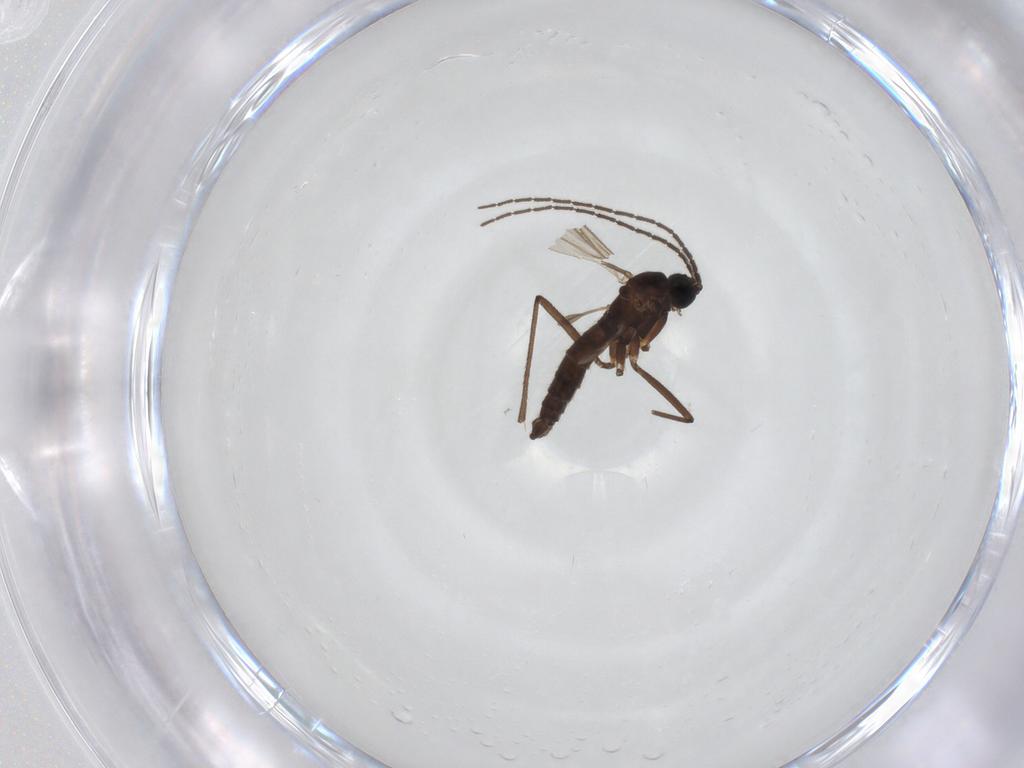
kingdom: Animalia
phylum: Arthropoda
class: Insecta
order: Diptera
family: Sciaridae
